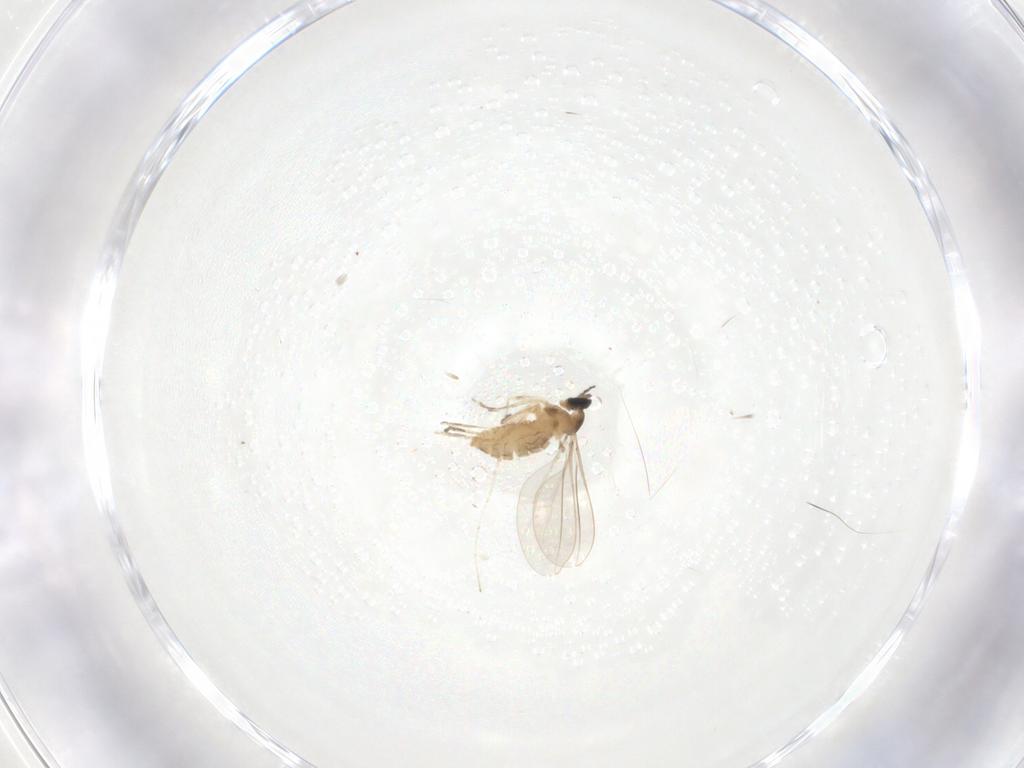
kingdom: Animalia
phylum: Arthropoda
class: Insecta
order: Diptera
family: Cecidomyiidae
